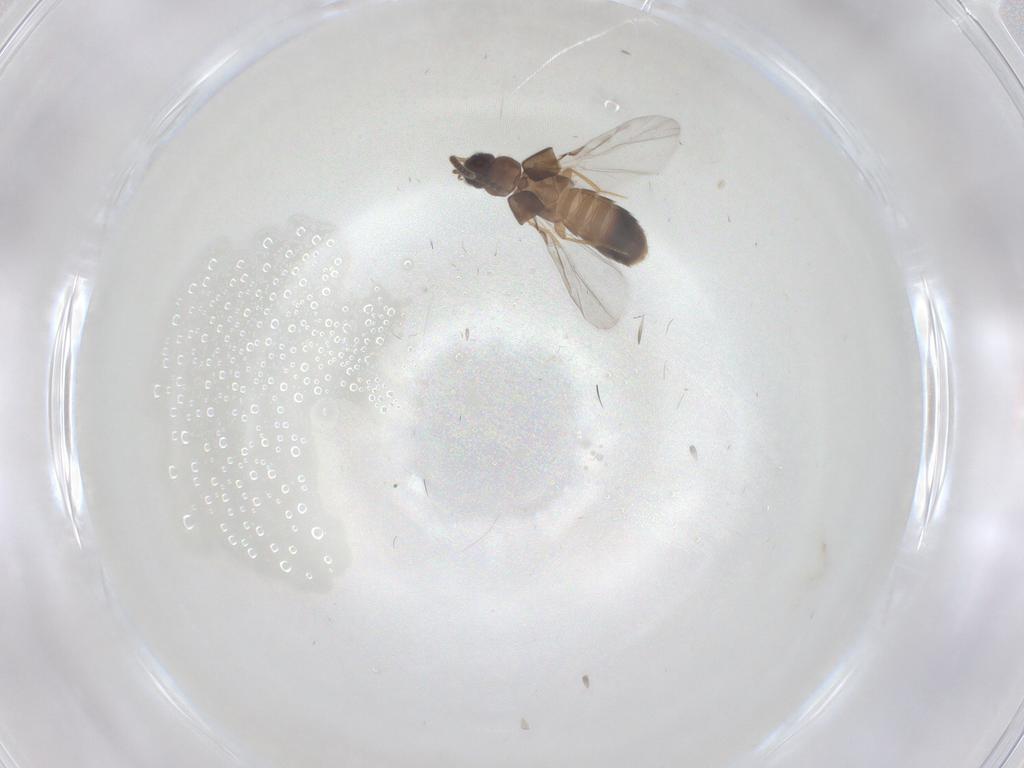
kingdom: Animalia
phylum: Arthropoda
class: Insecta
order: Coleoptera
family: Staphylinidae
